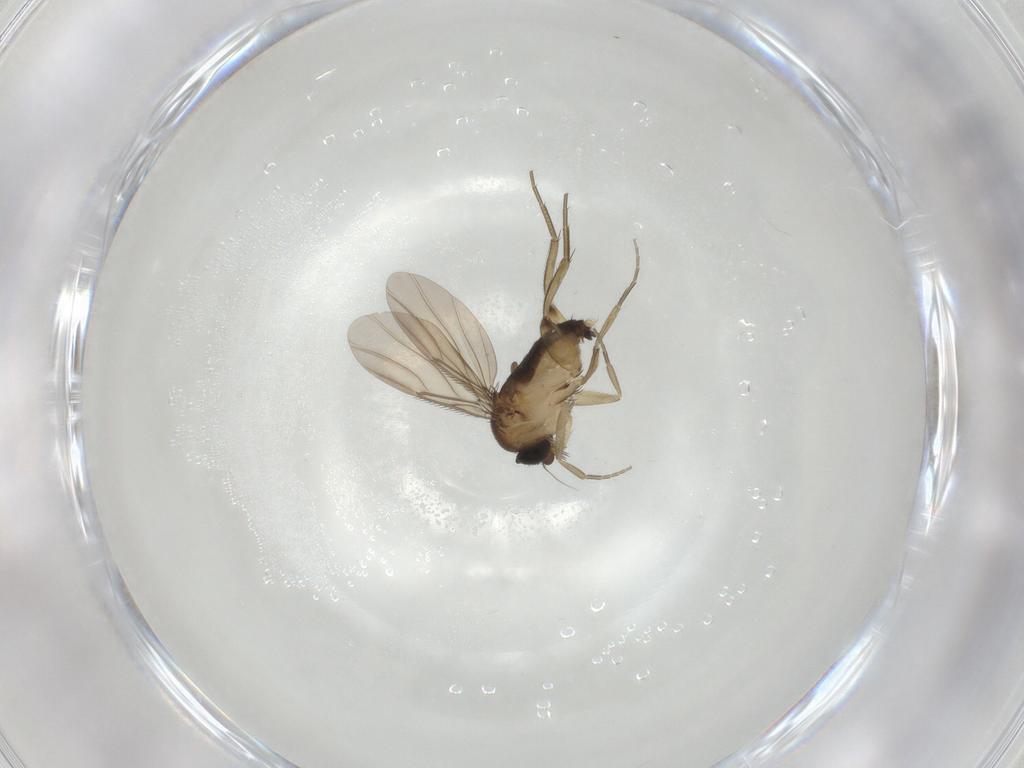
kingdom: Animalia
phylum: Arthropoda
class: Insecta
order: Diptera
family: Phoridae
